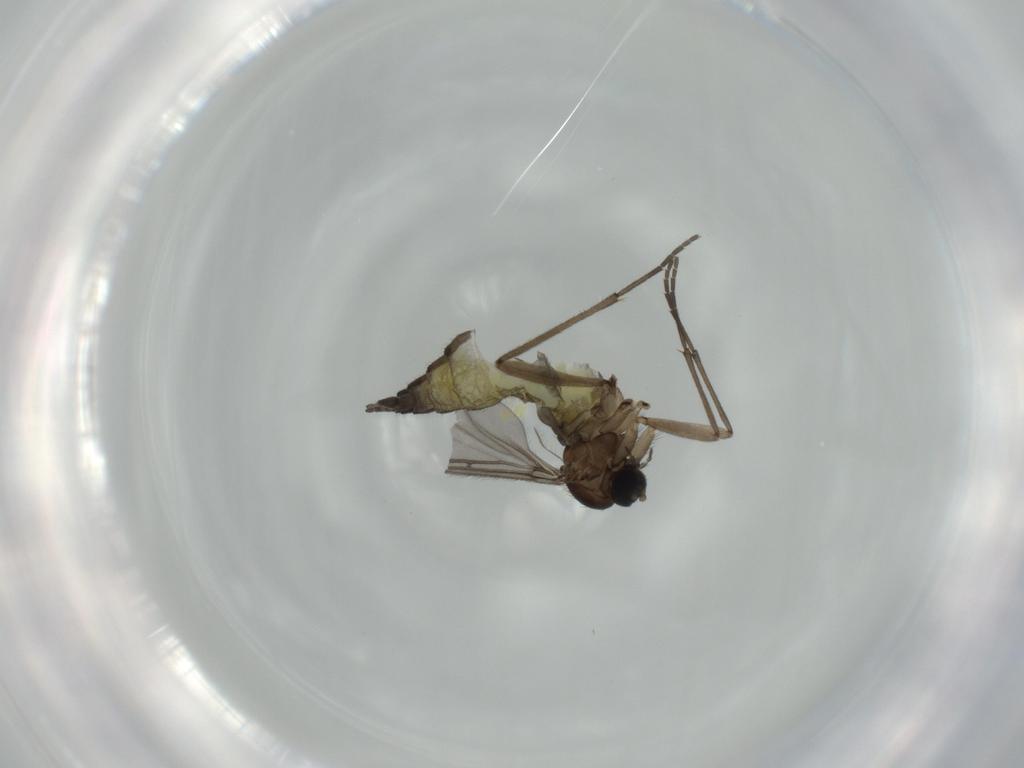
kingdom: Animalia
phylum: Arthropoda
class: Insecta
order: Diptera
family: Sciaridae
